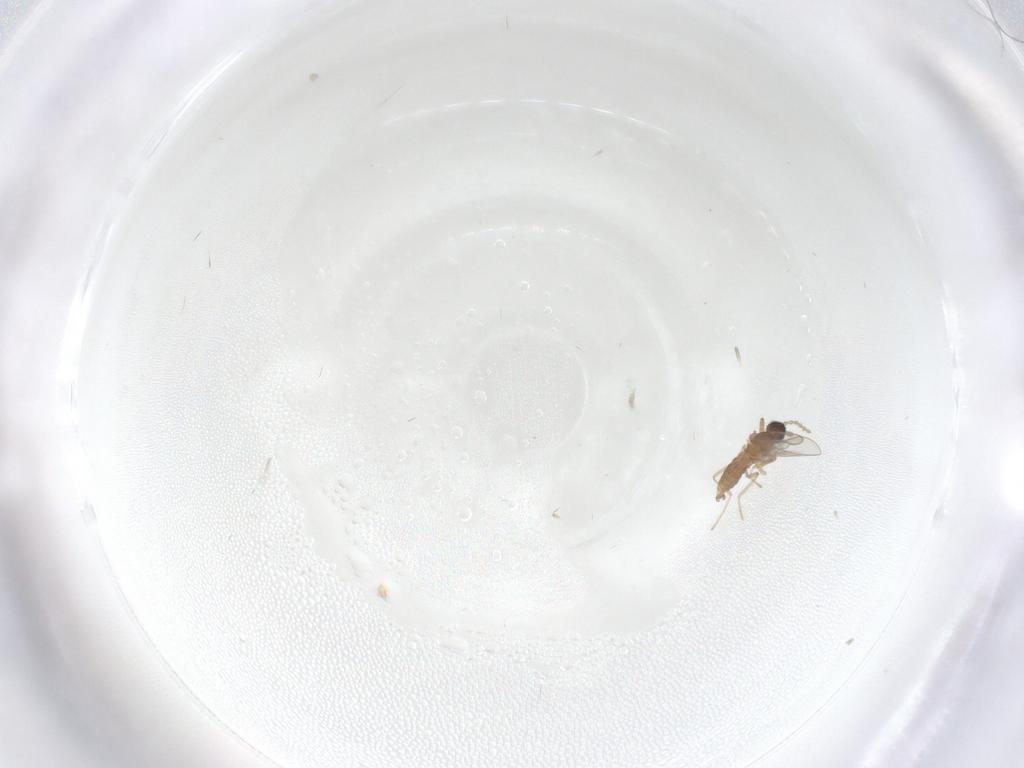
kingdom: Animalia
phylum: Arthropoda
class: Insecta
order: Diptera
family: Cecidomyiidae
